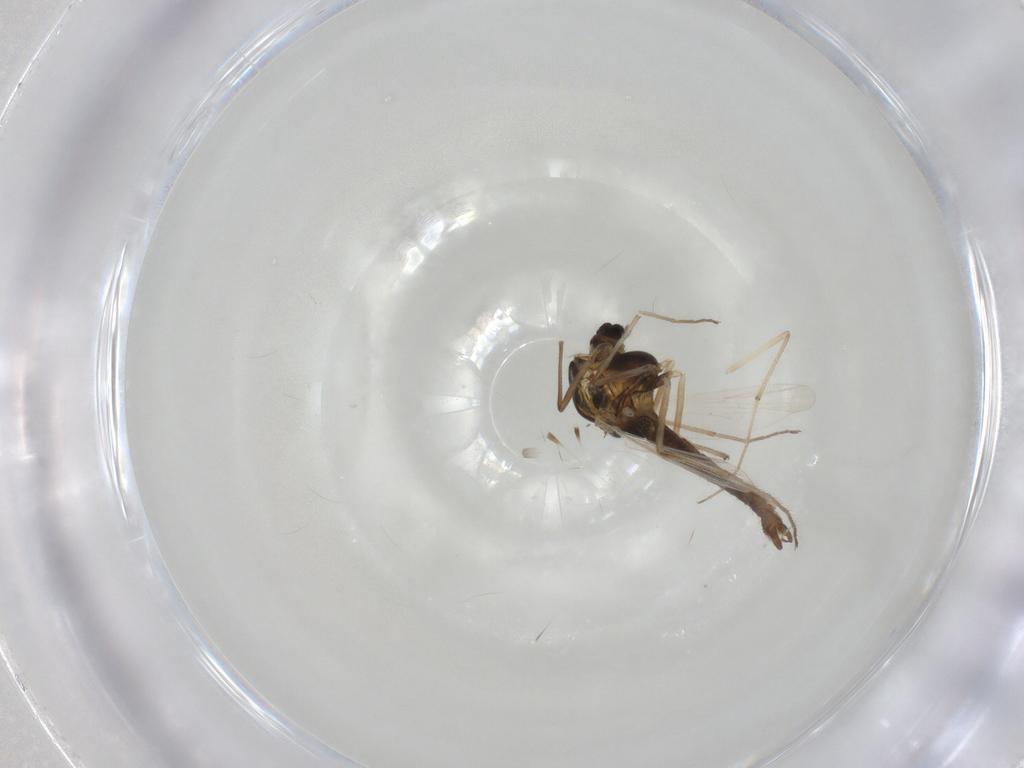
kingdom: Animalia
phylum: Arthropoda
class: Insecta
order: Diptera
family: Chironomidae
